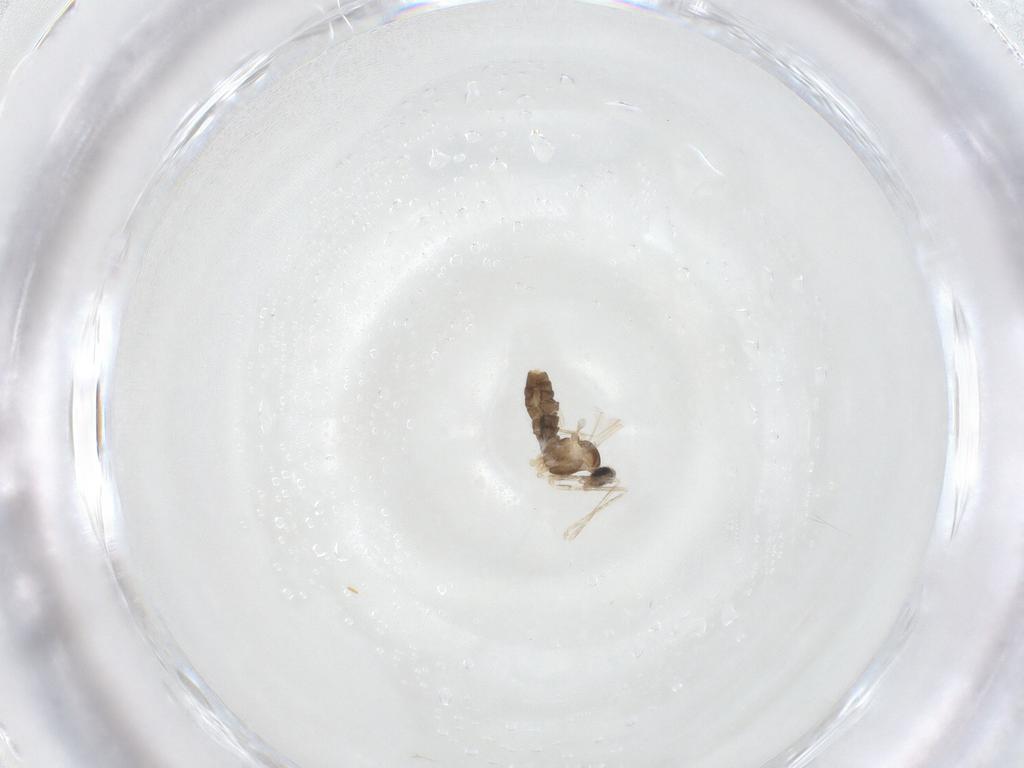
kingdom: Animalia
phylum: Arthropoda
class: Insecta
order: Diptera
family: Cecidomyiidae
